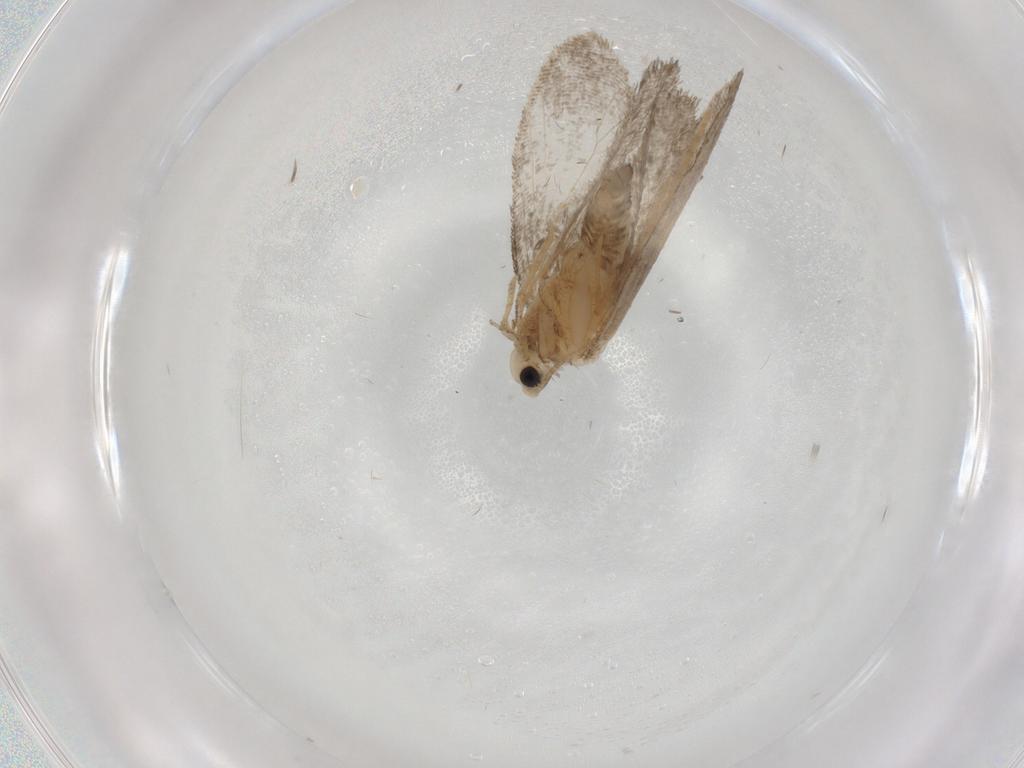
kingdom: Animalia
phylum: Arthropoda
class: Insecta
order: Lepidoptera
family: Psychidae
